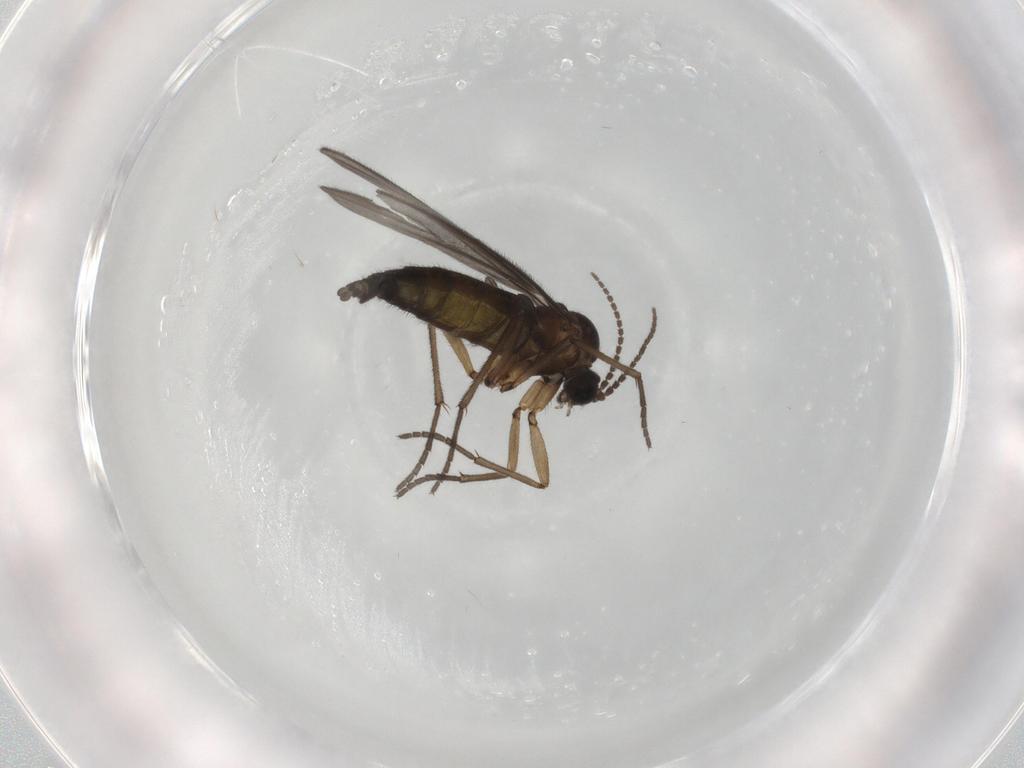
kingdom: Animalia
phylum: Arthropoda
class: Insecta
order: Diptera
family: Sciaridae
